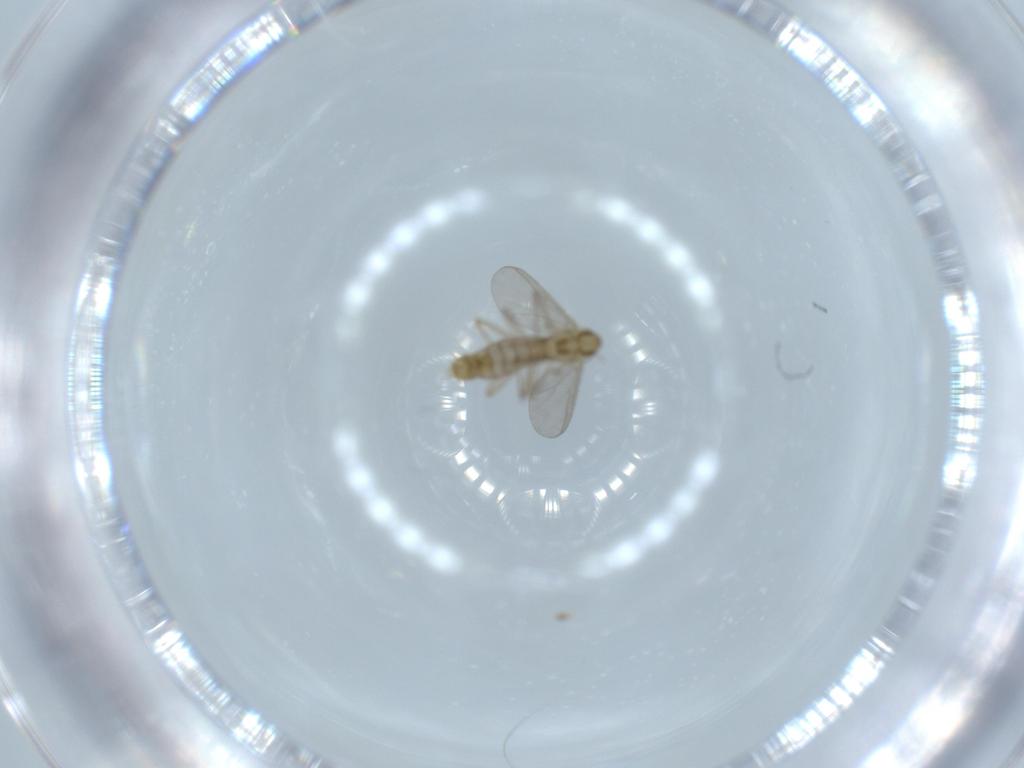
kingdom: Animalia
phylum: Arthropoda
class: Insecta
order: Diptera
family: Chironomidae
